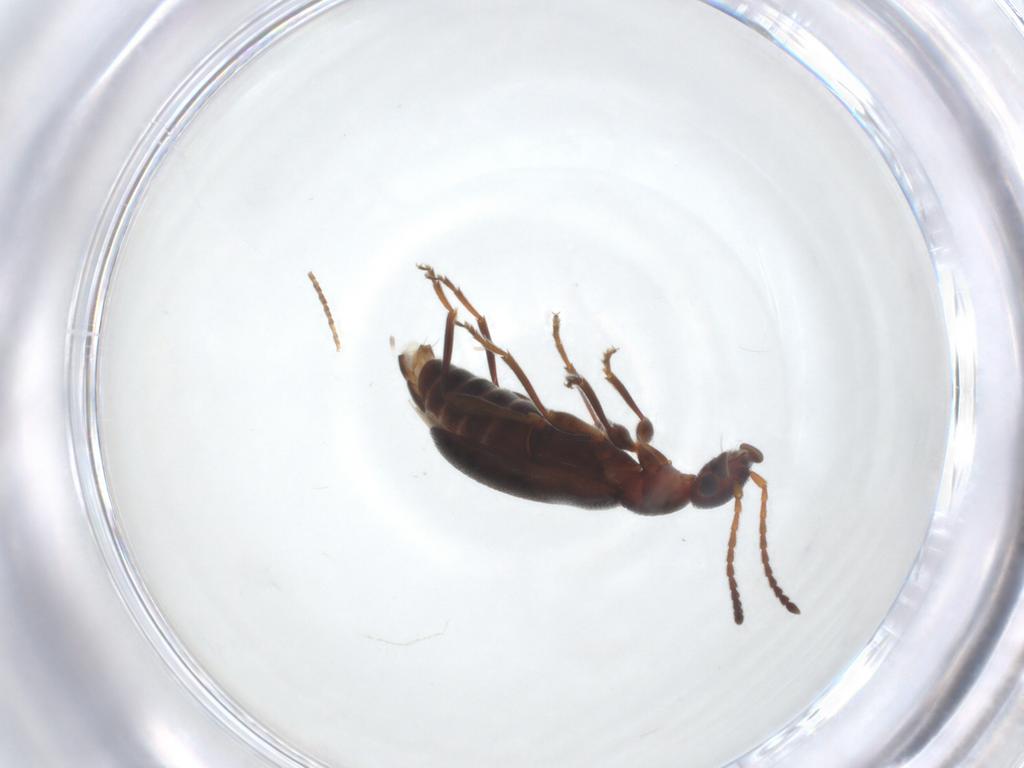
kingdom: Animalia
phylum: Arthropoda
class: Insecta
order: Coleoptera
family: Anthicidae
